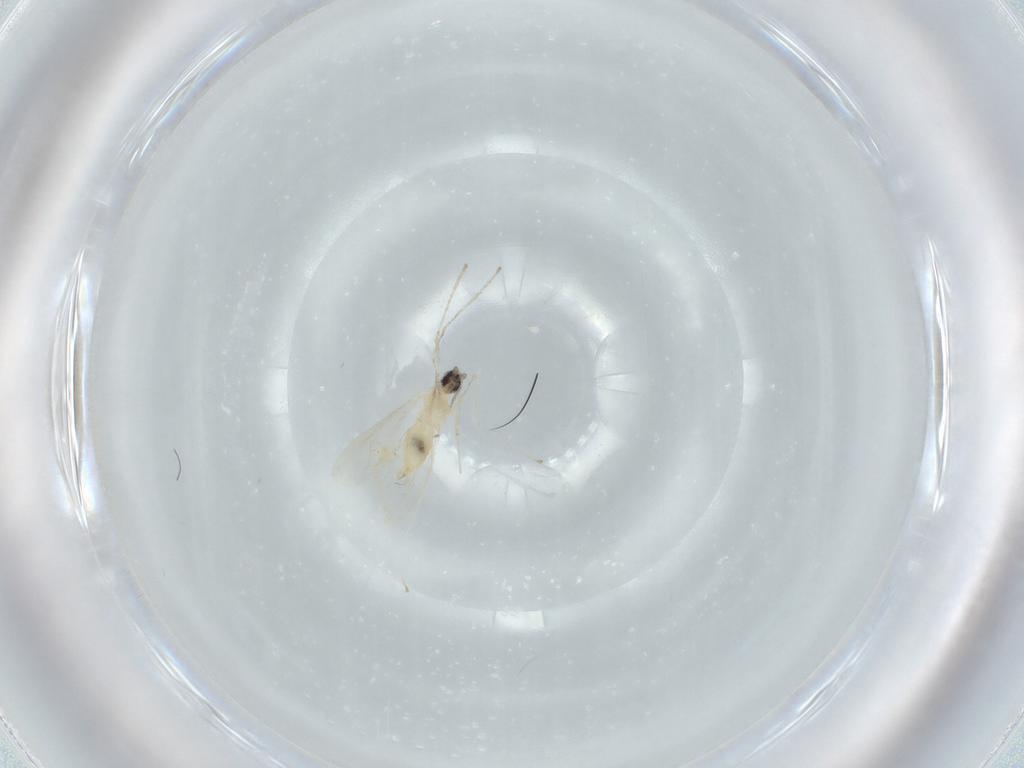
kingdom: Animalia
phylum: Arthropoda
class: Insecta
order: Diptera
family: Cecidomyiidae
